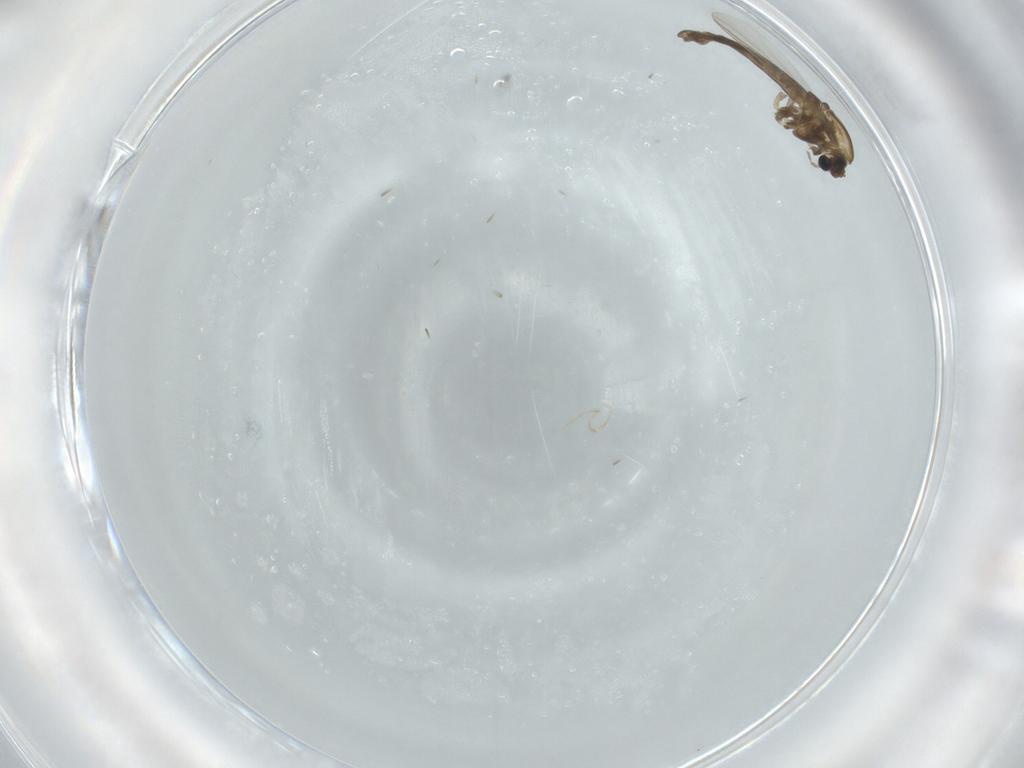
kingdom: Animalia
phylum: Arthropoda
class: Insecta
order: Diptera
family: Chironomidae
